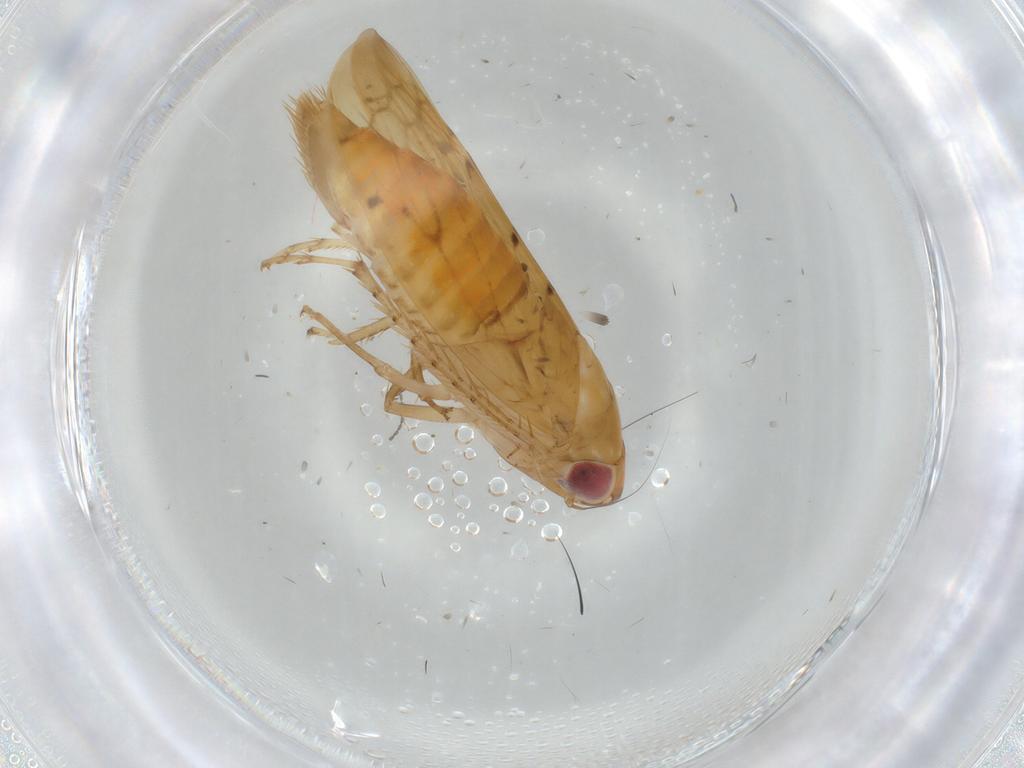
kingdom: Animalia
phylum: Arthropoda
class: Insecta
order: Hemiptera
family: Cicadellidae
